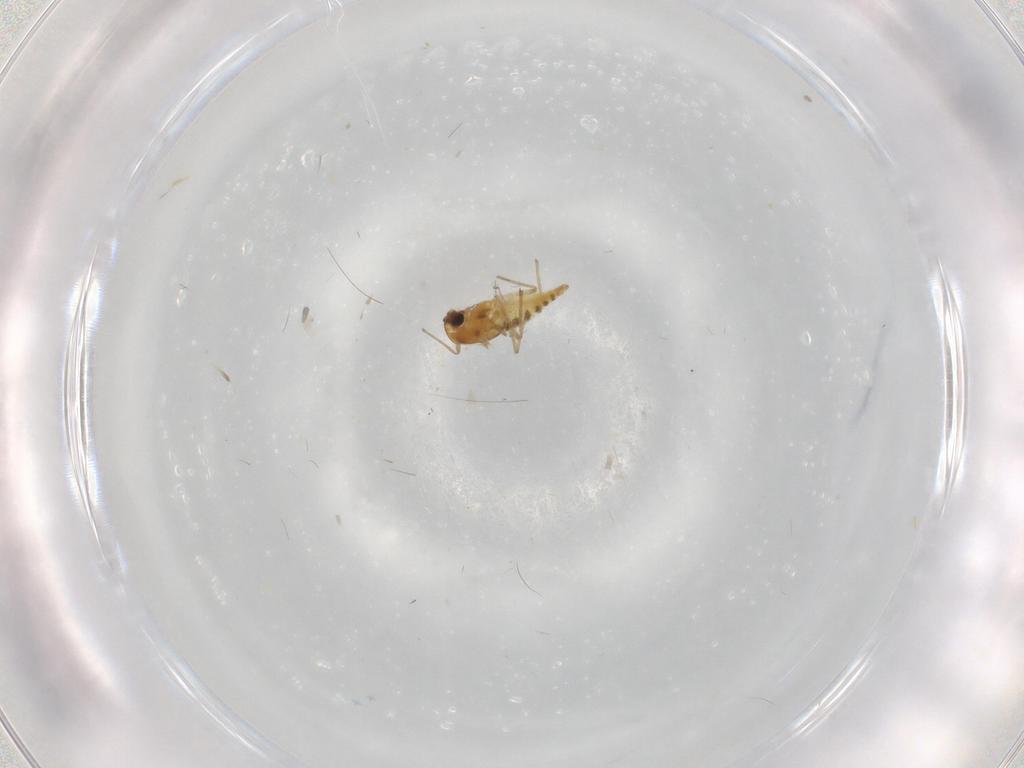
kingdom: Animalia
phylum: Arthropoda
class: Insecta
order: Diptera
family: Chironomidae
